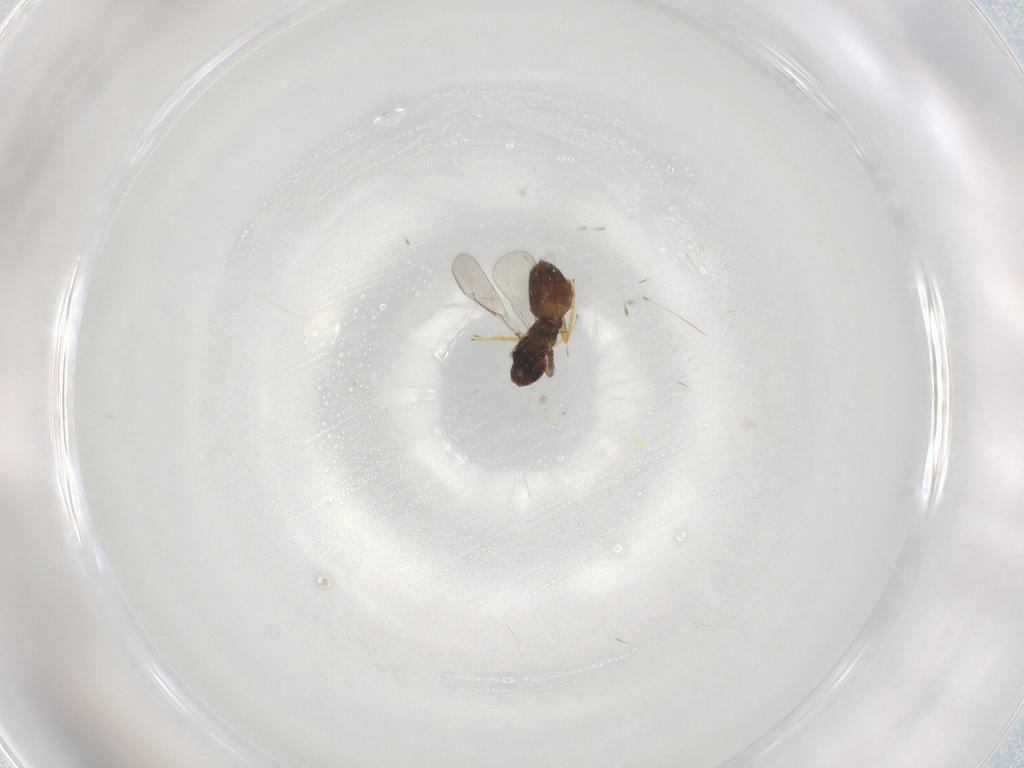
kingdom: Animalia
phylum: Arthropoda
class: Insecta
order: Hymenoptera
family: Eulophidae
